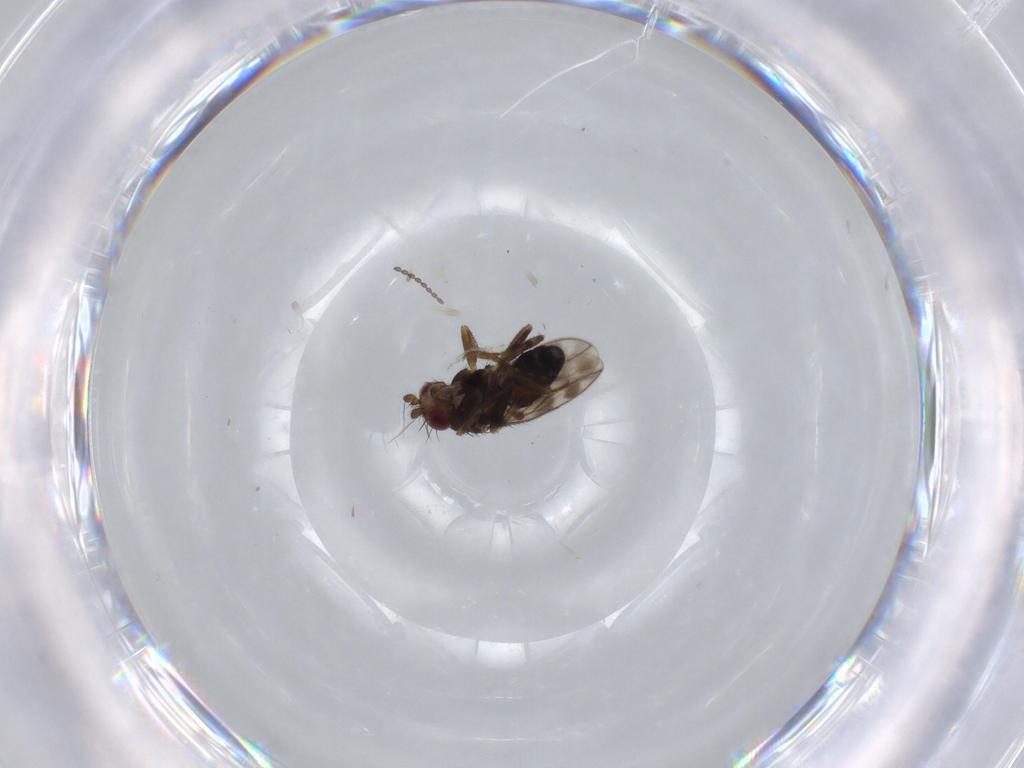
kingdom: Animalia
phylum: Arthropoda
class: Insecta
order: Diptera
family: Sphaeroceridae
